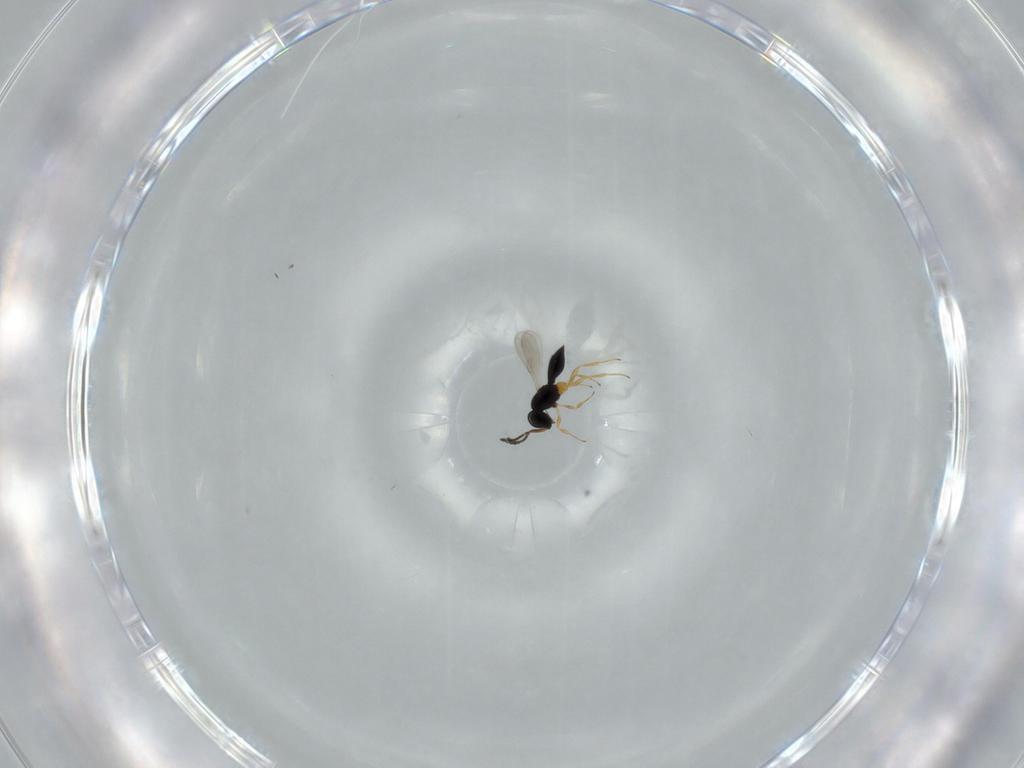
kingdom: Animalia
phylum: Arthropoda
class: Insecta
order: Hymenoptera
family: Scelionidae
